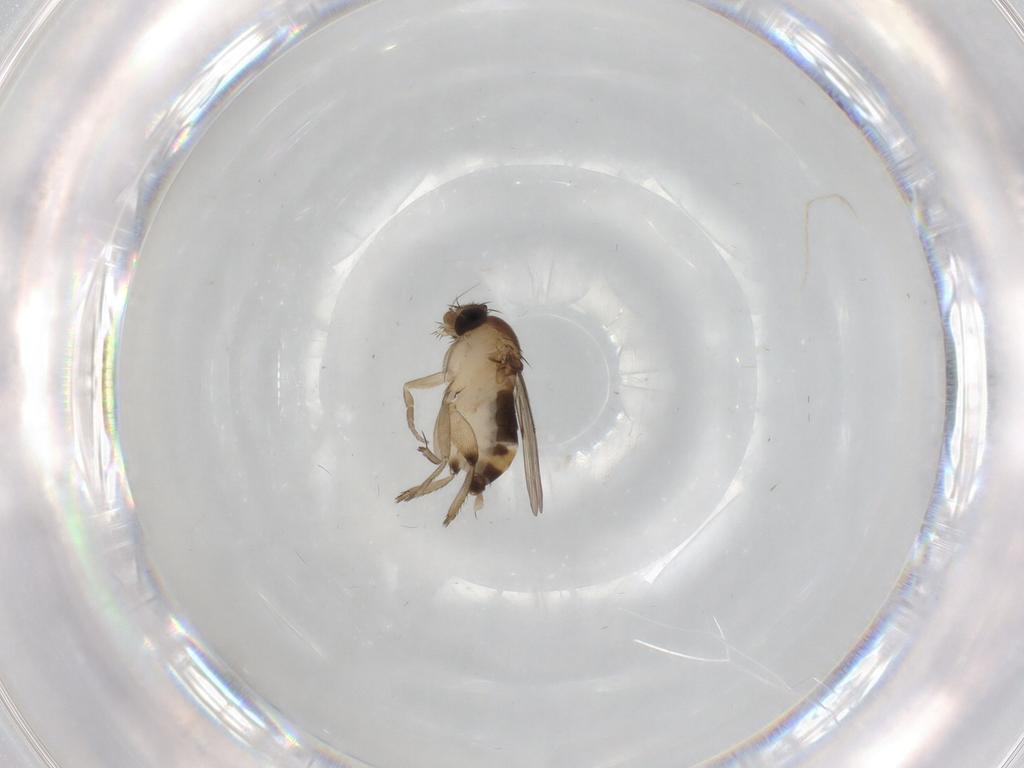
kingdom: Animalia
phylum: Arthropoda
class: Insecta
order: Diptera
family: Phoridae
